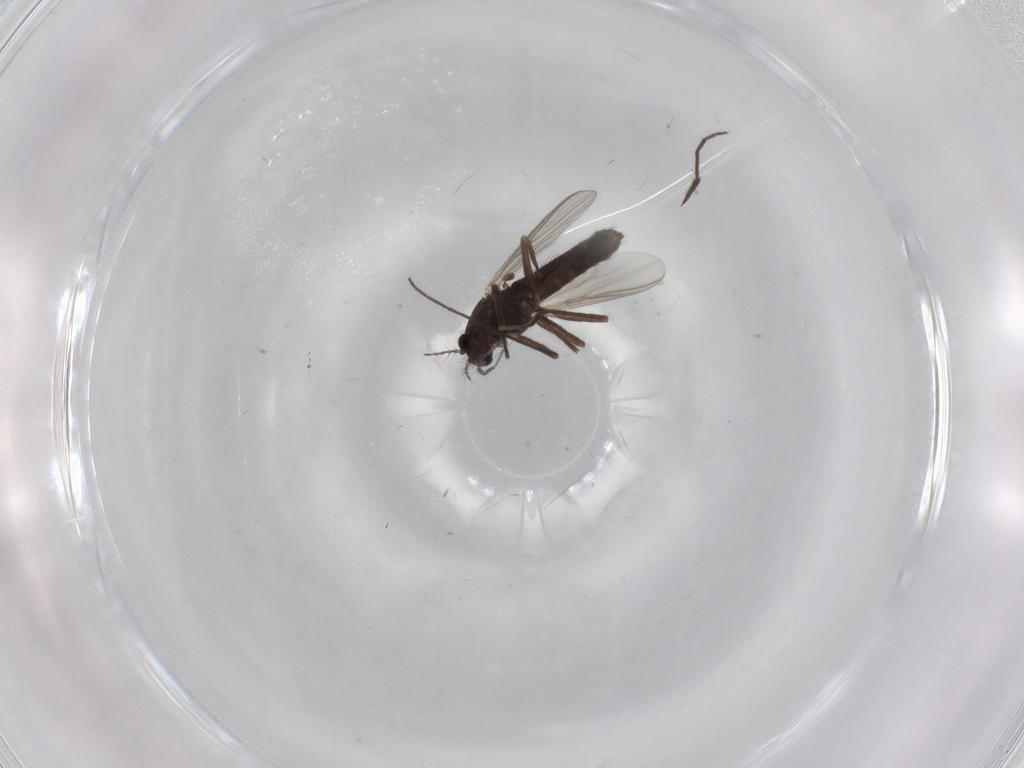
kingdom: Animalia
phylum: Arthropoda
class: Insecta
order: Diptera
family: Chironomidae
